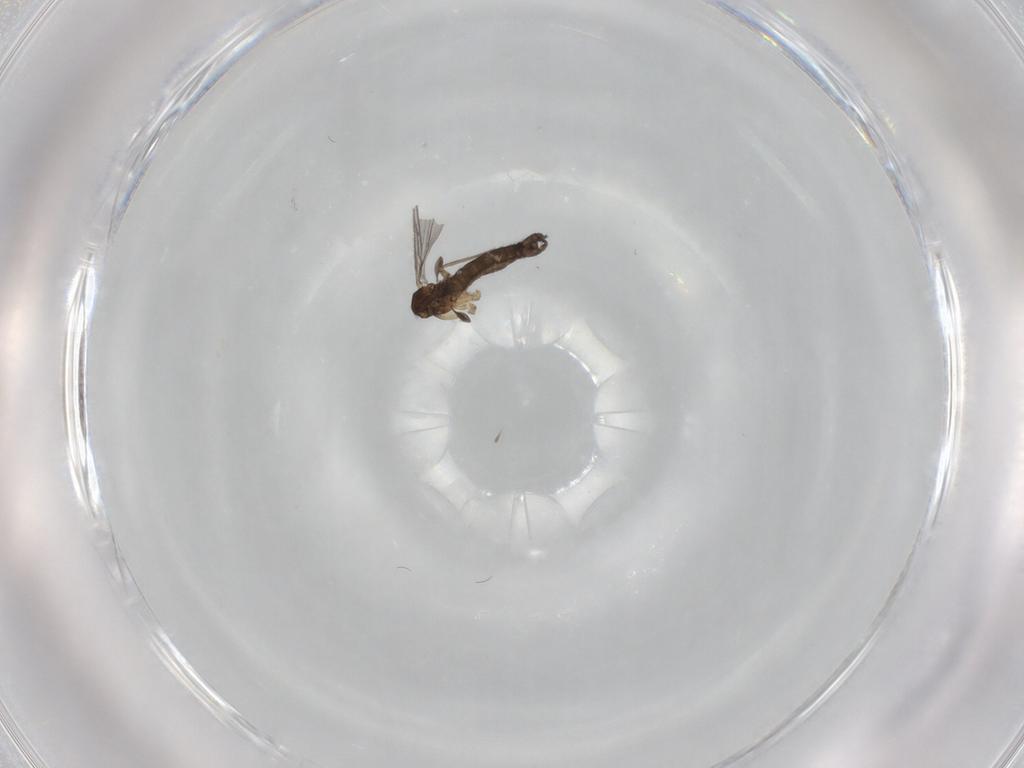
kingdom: Animalia
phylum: Arthropoda
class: Insecta
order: Diptera
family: Sciaridae
